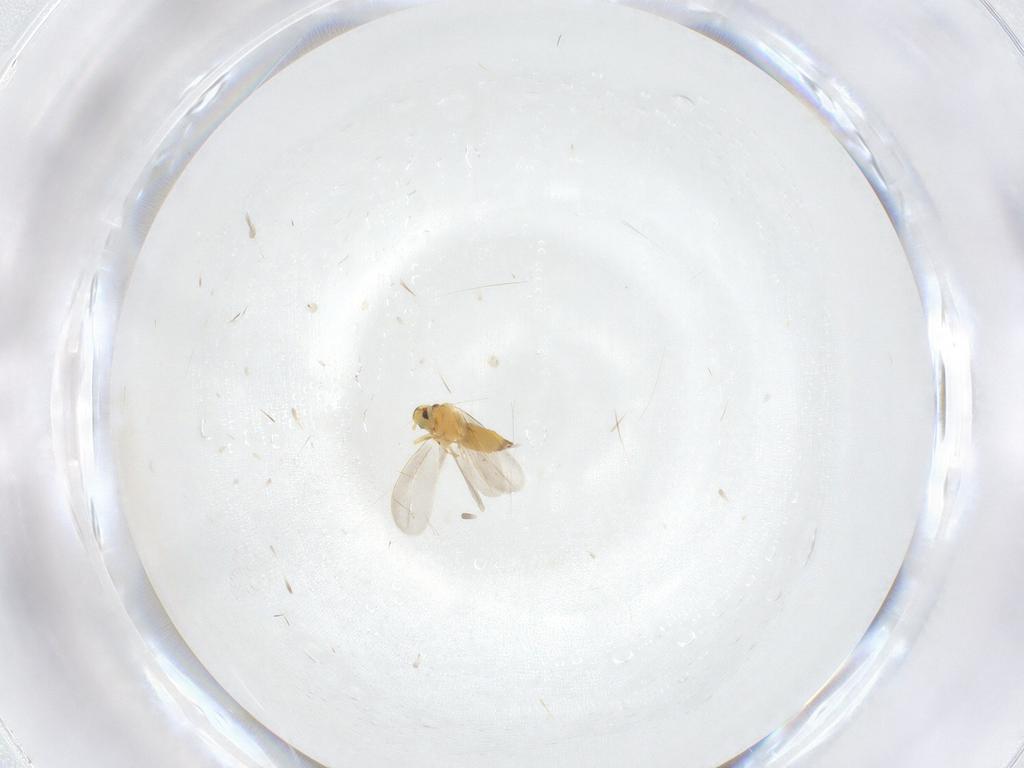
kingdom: Animalia
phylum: Arthropoda
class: Insecta
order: Hemiptera
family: Aleyrodidae
